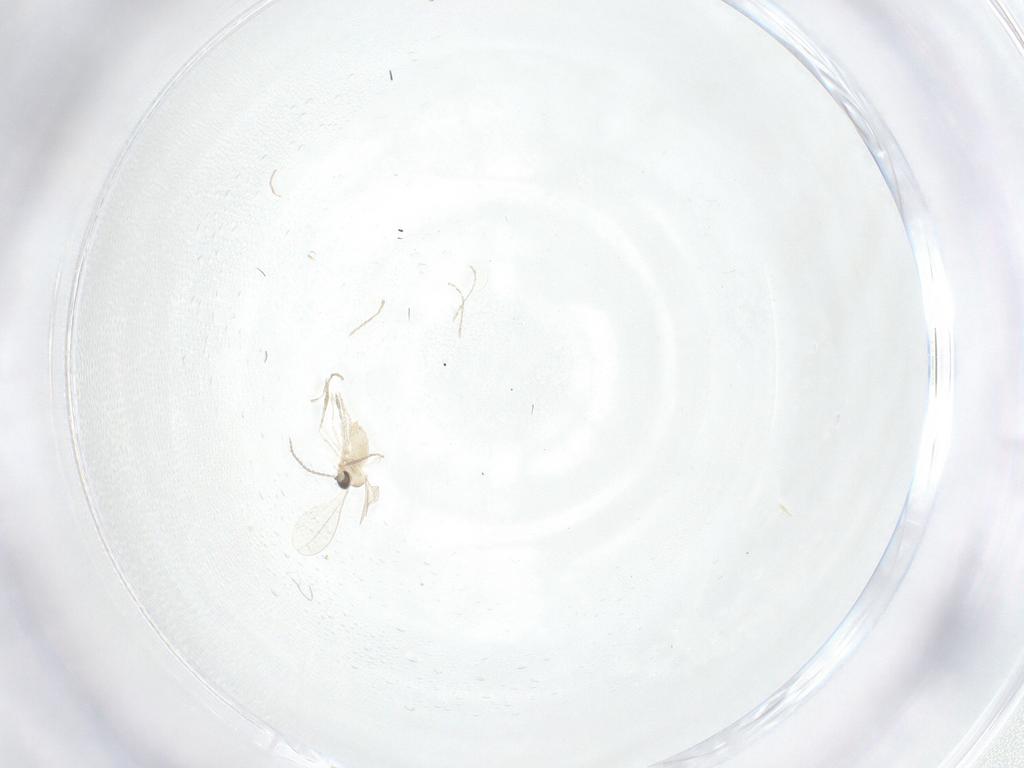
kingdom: Animalia
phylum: Arthropoda
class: Insecta
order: Diptera
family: Cecidomyiidae
